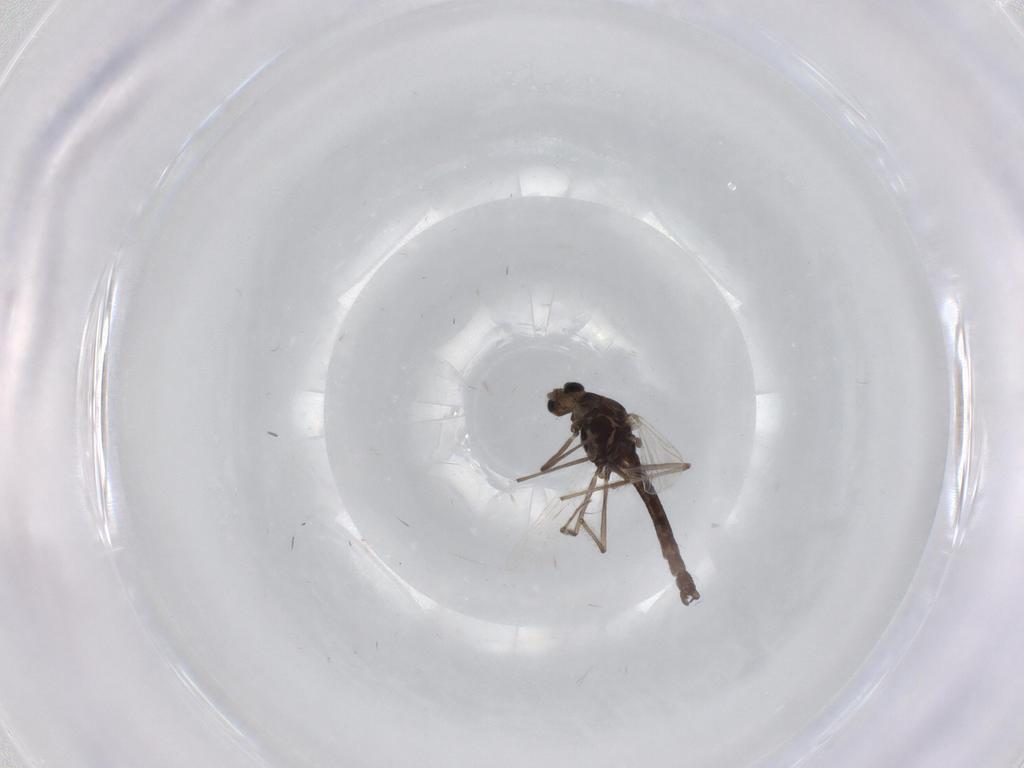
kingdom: Animalia
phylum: Arthropoda
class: Insecta
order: Diptera
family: Chironomidae
